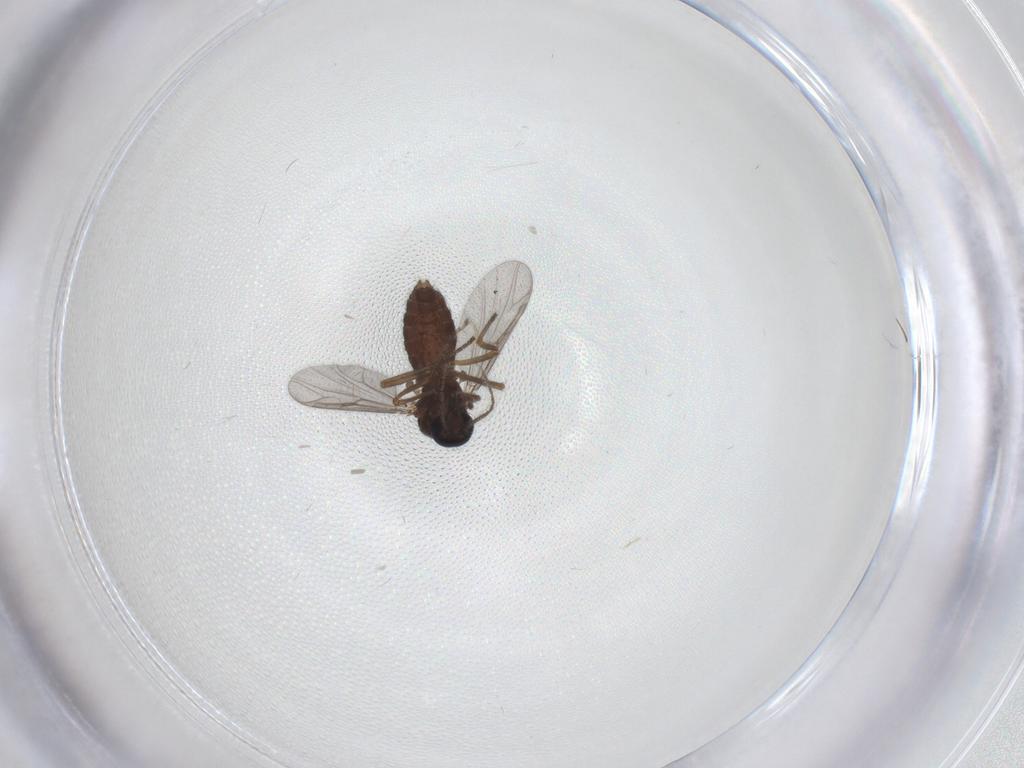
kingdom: Animalia
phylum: Arthropoda
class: Insecta
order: Diptera
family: Ceratopogonidae
